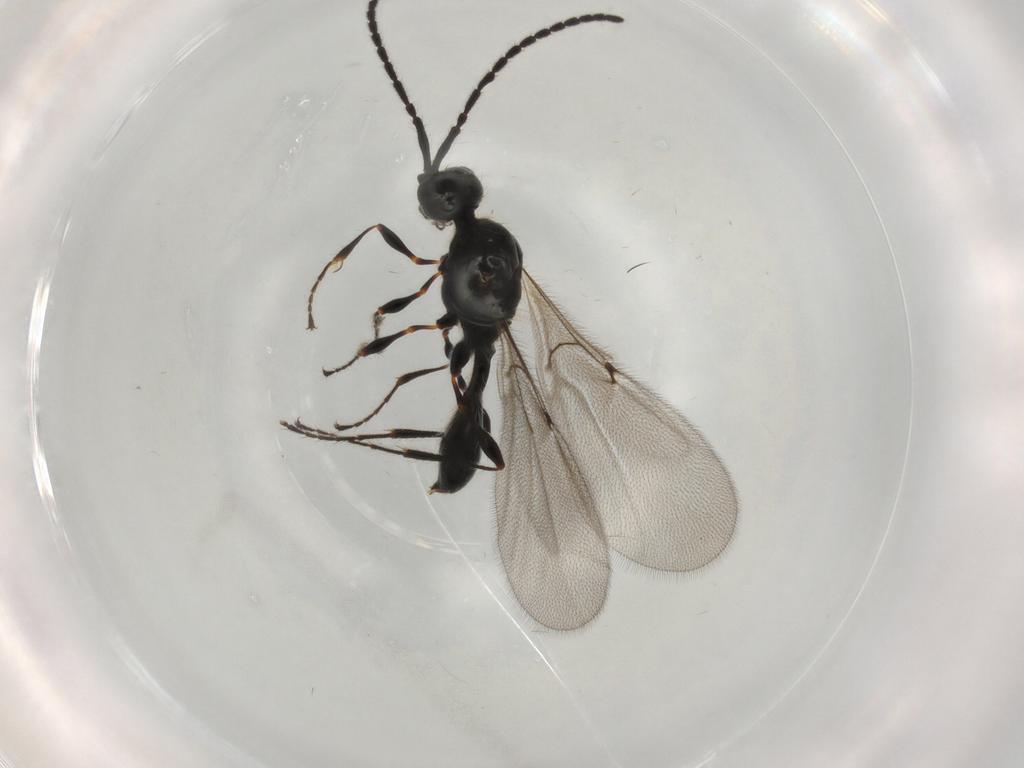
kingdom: Animalia
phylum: Arthropoda
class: Insecta
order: Hymenoptera
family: Diapriidae
